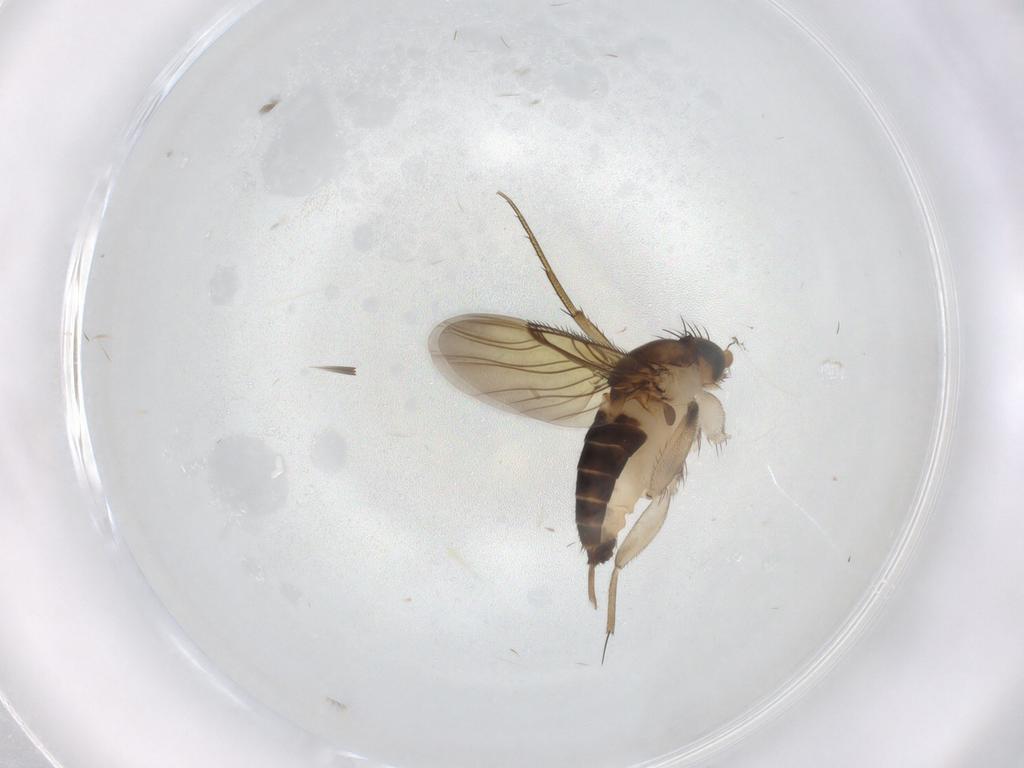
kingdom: Animalia
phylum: Arthropoda
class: Insecta
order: Diptera
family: Phoridae
